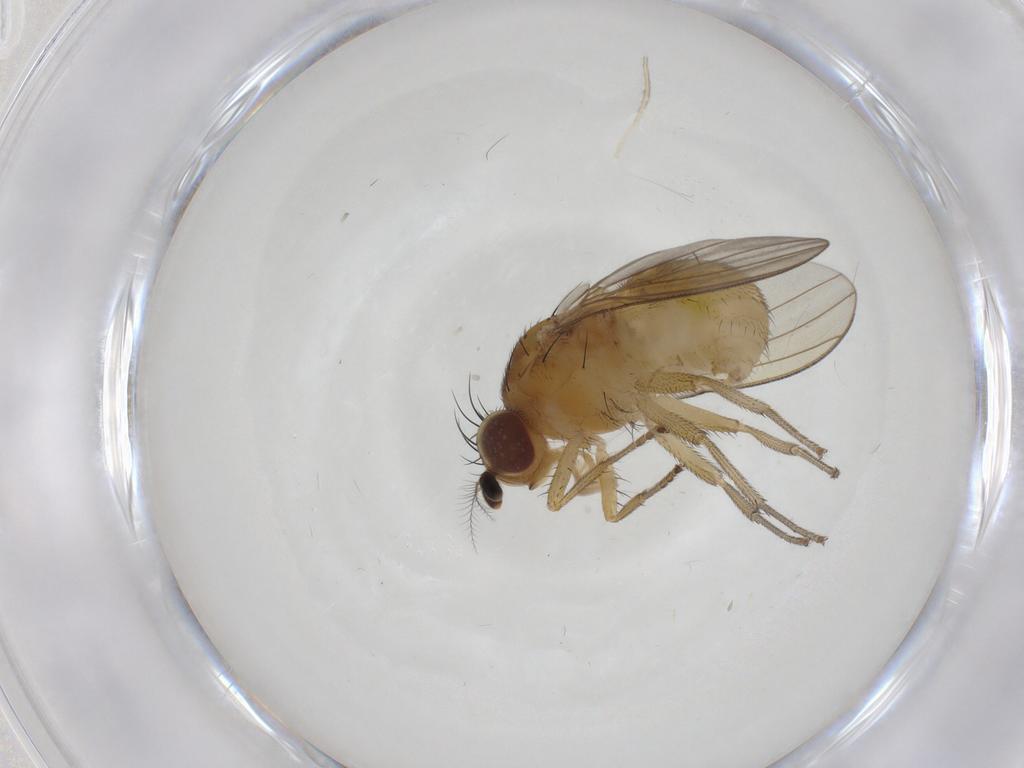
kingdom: Animalia
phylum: Arthropoda
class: Insecta
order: Diptera
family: Lauxaniidae
